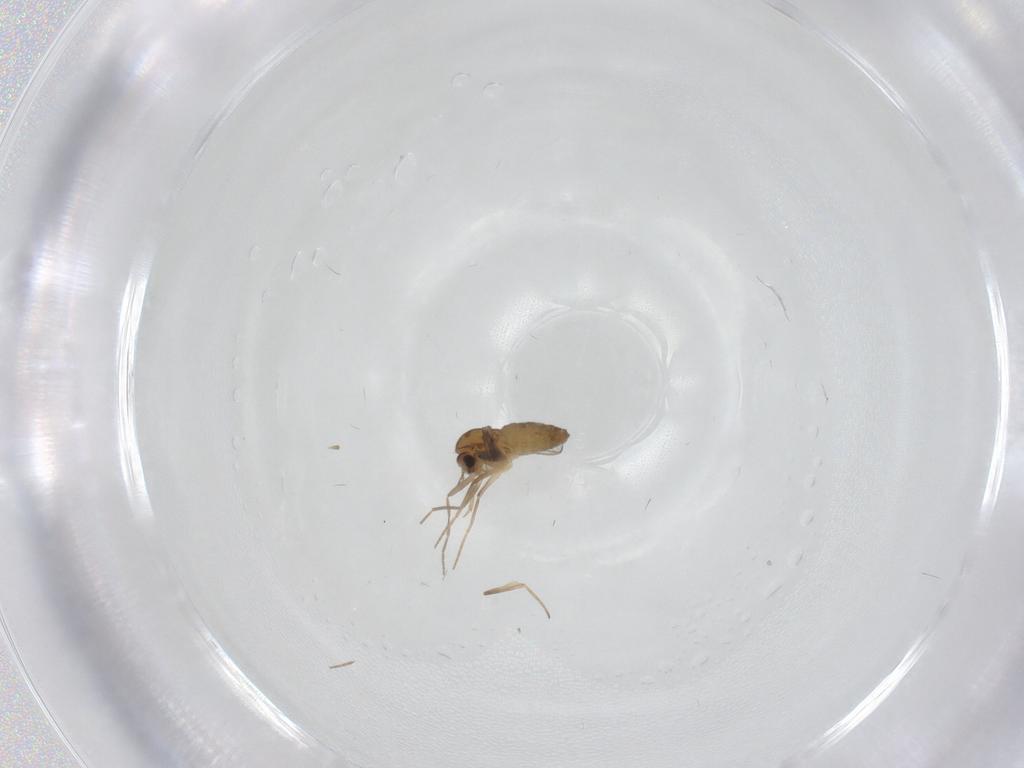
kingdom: Animalia
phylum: Arthropoda
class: Insecta
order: Diptera
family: Chironomidae
